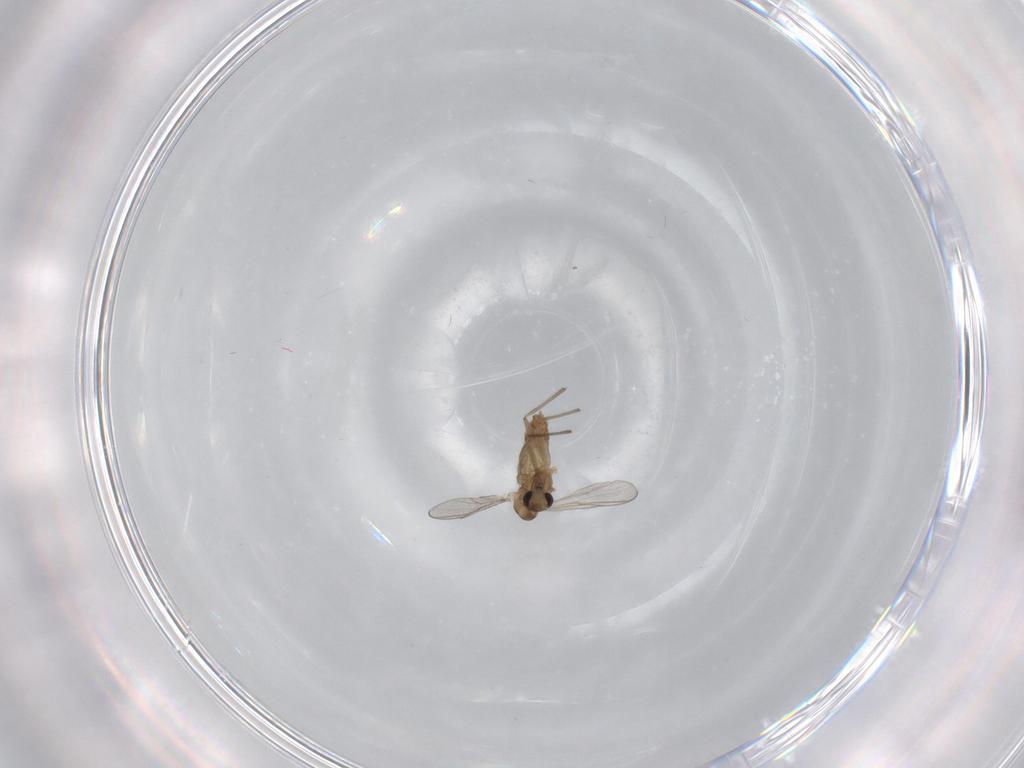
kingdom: Animalia
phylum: Arthropoda
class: Insecta
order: Diptera
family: Chironomidae
